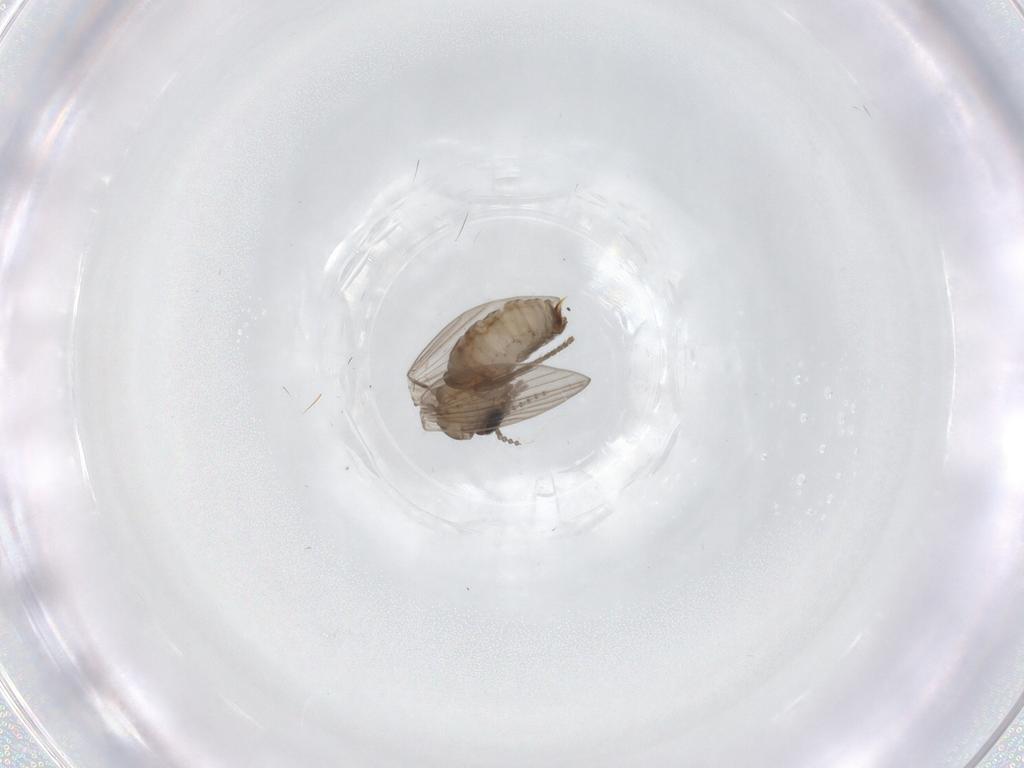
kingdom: Animalia
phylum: Arthropoda
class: Insecta
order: Diptera
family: Psychodidae
